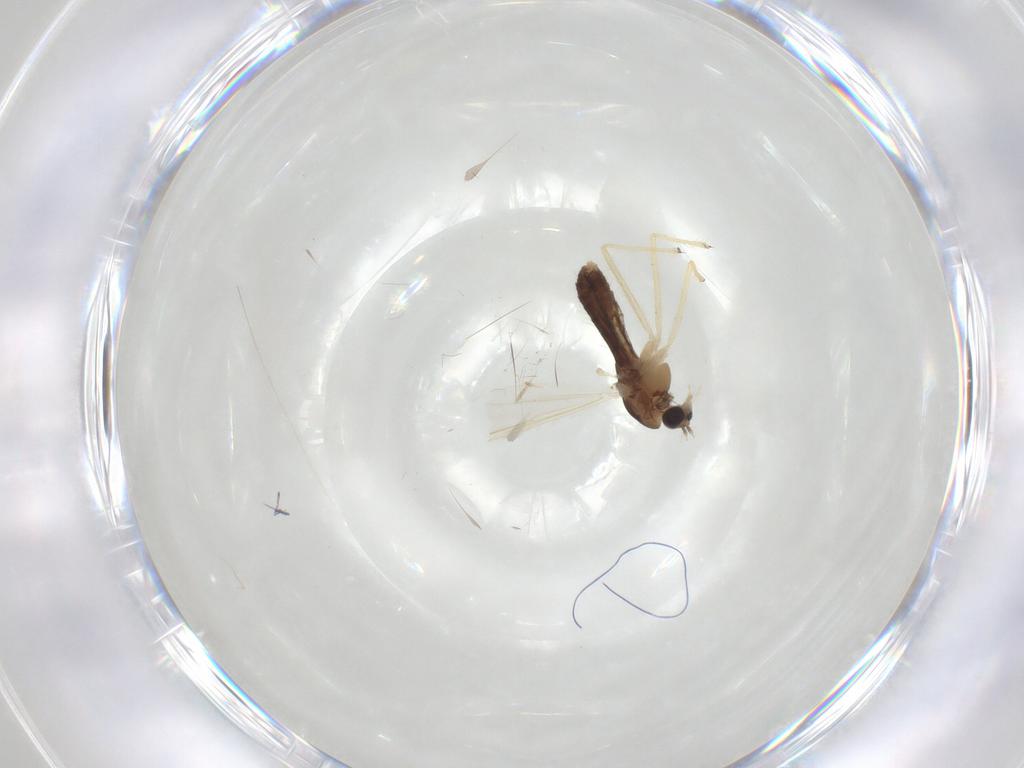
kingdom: Animalia
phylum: Arthropoda
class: Insecta
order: Diptera
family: Chironomidae
